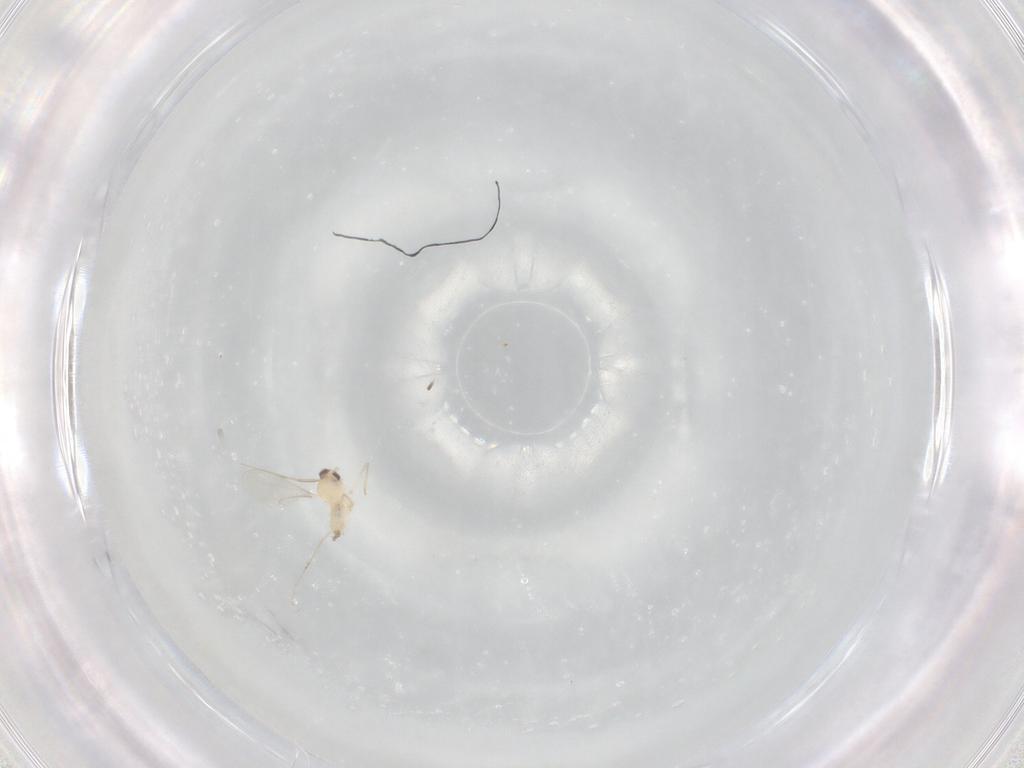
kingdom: Animalia
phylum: Arthropoda
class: Insecta
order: Diptera
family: Cecidomyiidae
